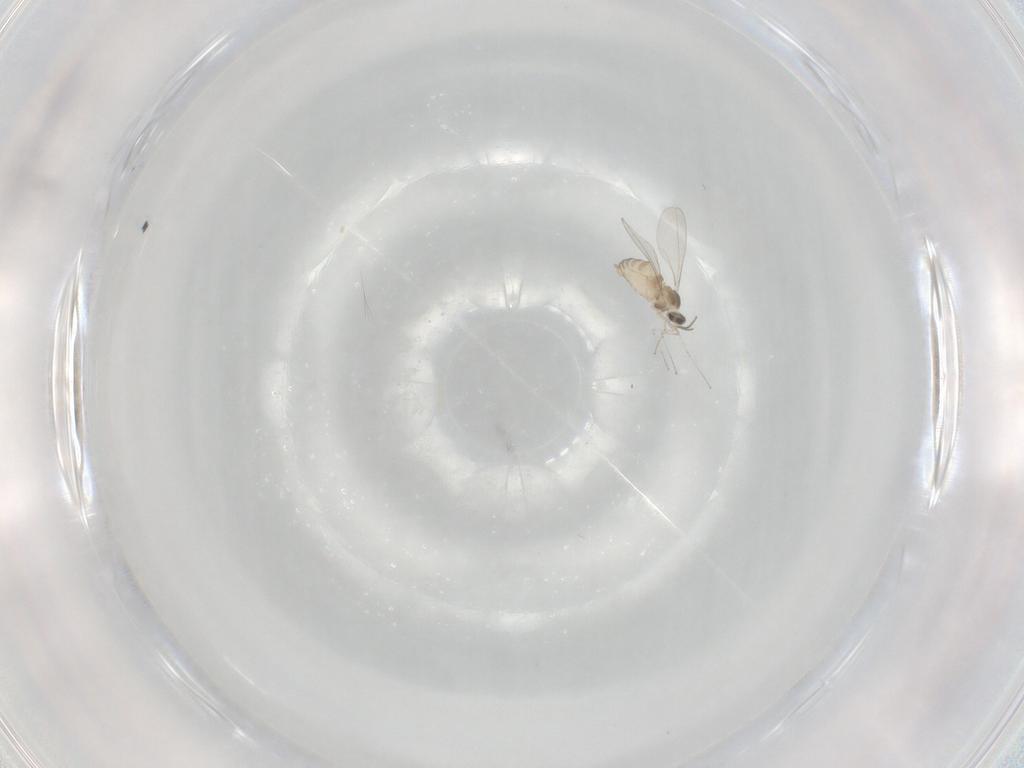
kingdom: Animalia
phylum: Arthropoda
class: Insecta
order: Diptera
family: Cecidomyiidae
